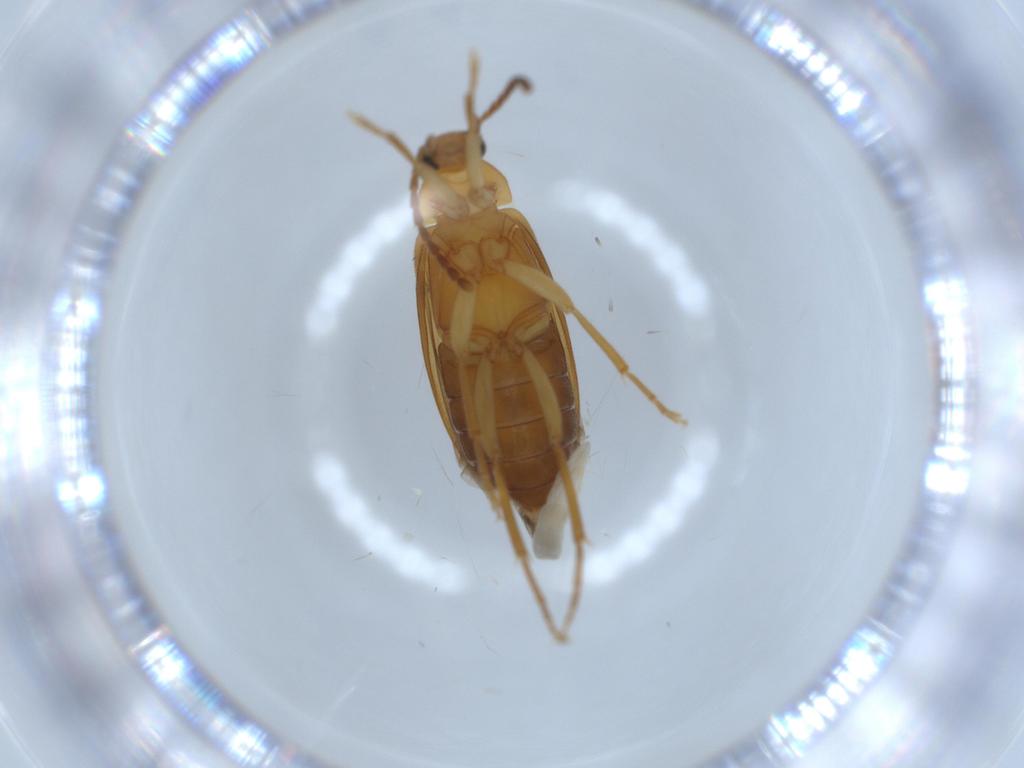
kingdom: Animalia
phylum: Arthropoda
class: Insecta
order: Coleoptera
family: Scraptiidae
